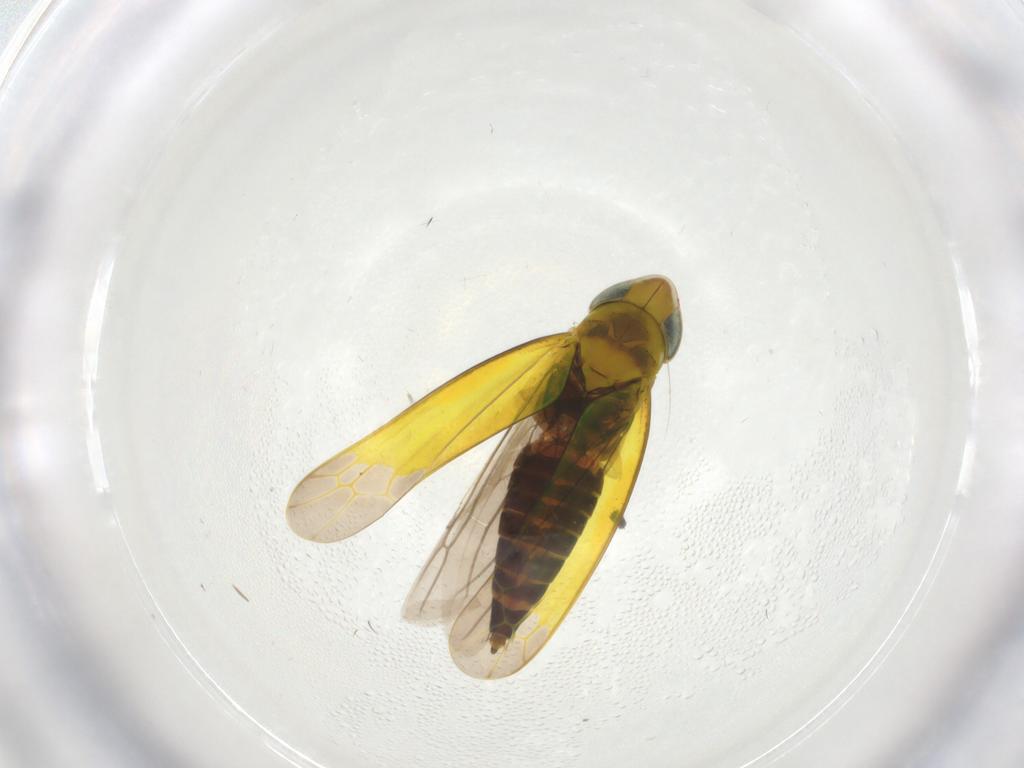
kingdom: Animalia
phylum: Arthropoda
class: Insecta
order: Hemiptera
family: Cicadellidae
